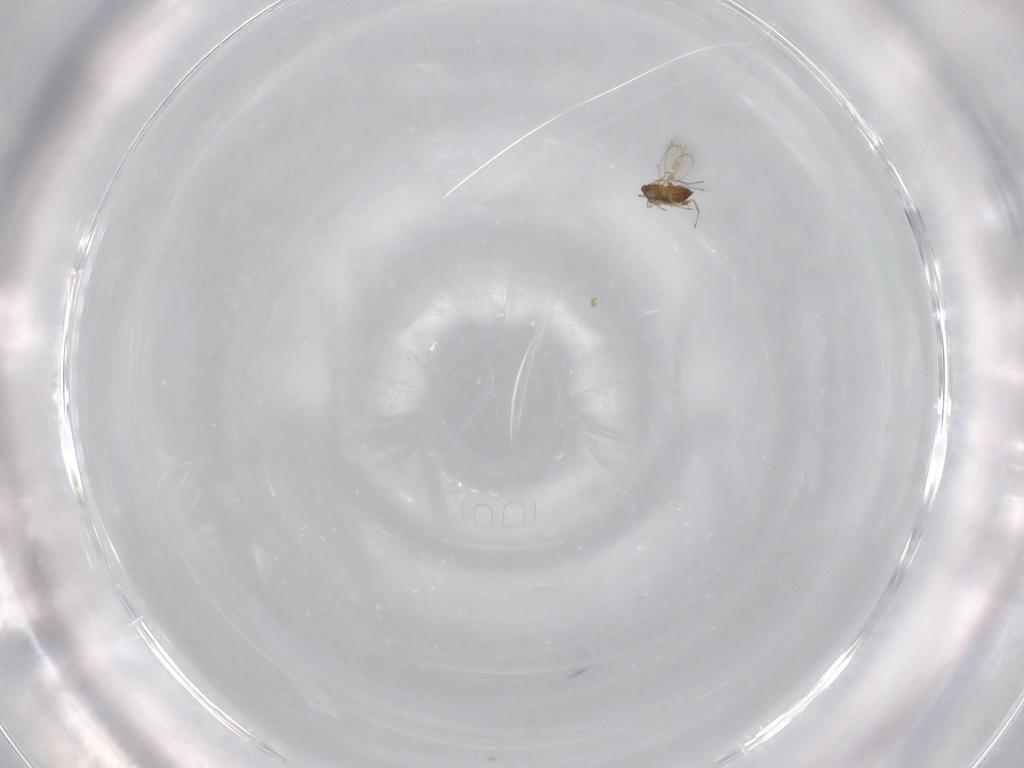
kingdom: Animalia
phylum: Arthropoda
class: Insecta
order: Hymenoptera
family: Trichogrammatidae
